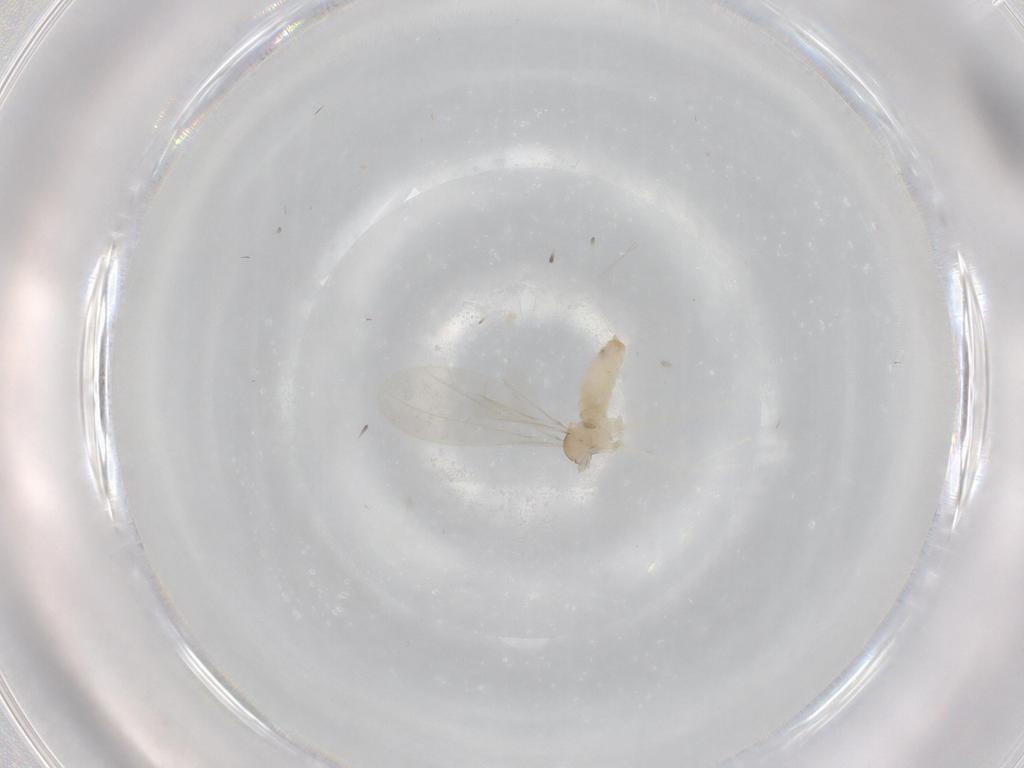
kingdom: Animalia
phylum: Arthropoda
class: Insecta
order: Diptera
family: Cecidomyiidae
